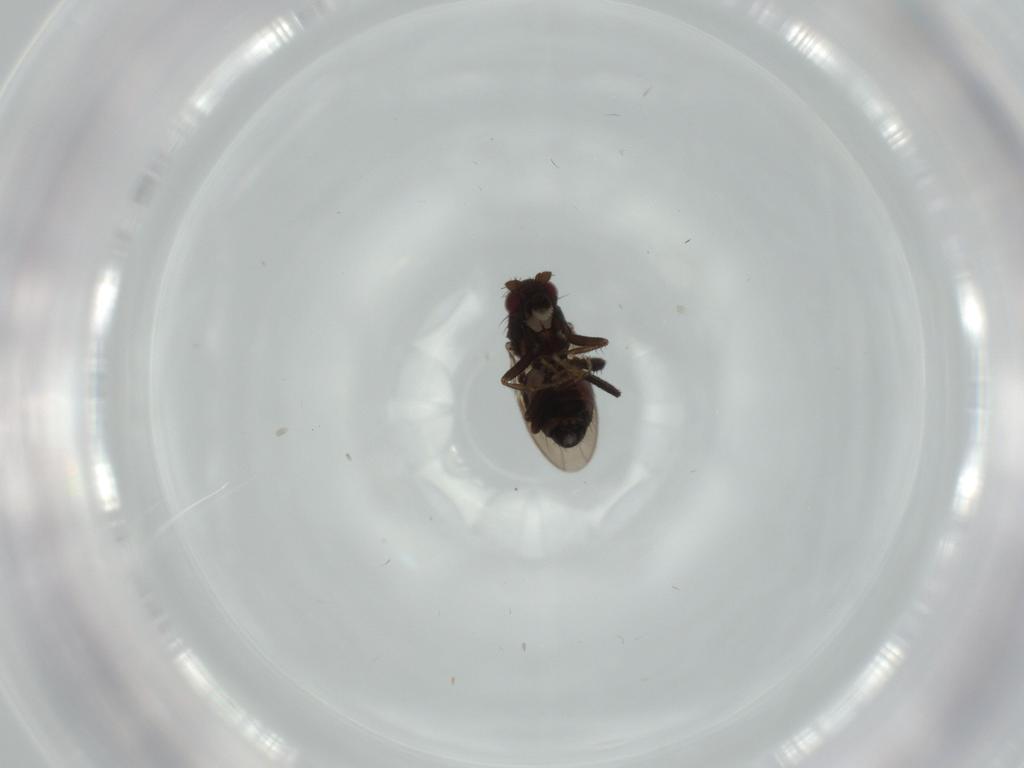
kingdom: Animalia
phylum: Arthropoda
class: Insecta
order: Diptera
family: Sphaeroceridae
